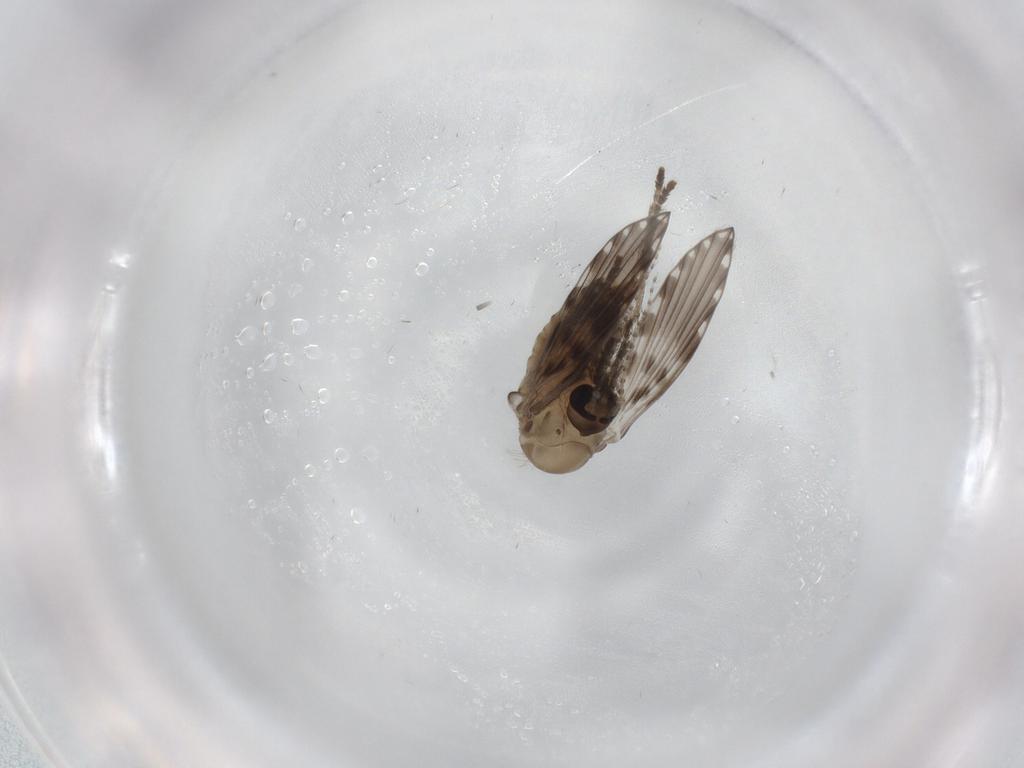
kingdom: Animalia
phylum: Arthropoda
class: Insecta
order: Diptera
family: Psychodidae
